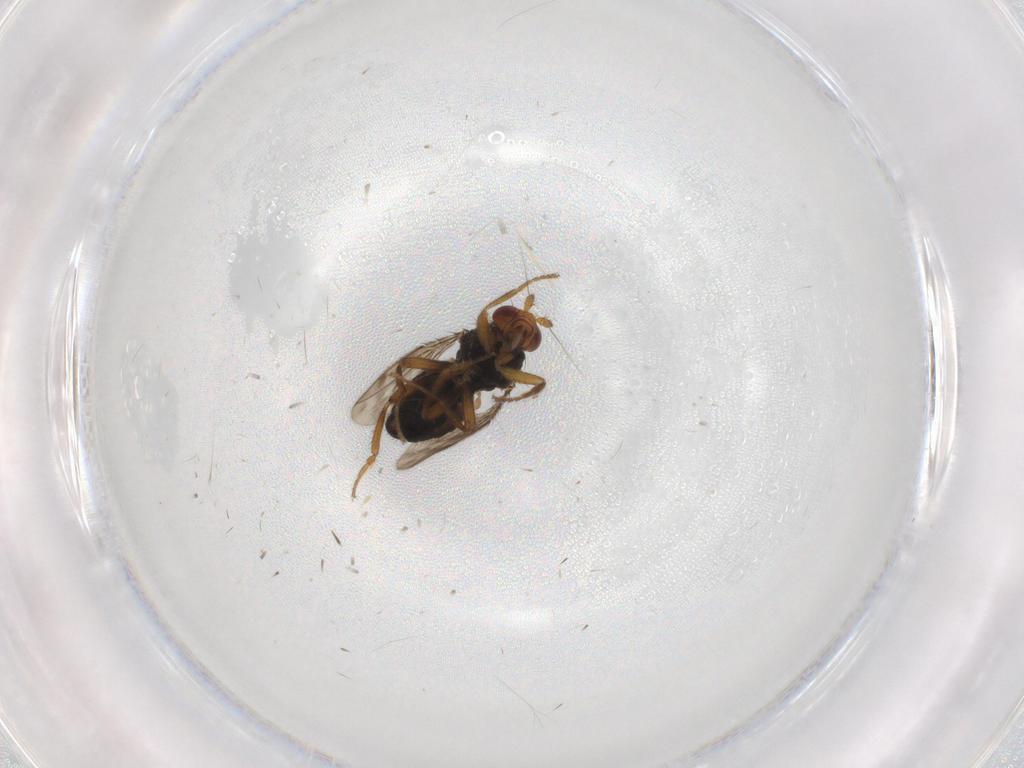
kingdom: Animalia
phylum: Arthropoda
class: Insecta
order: Diptera
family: Sphaeroceridae
